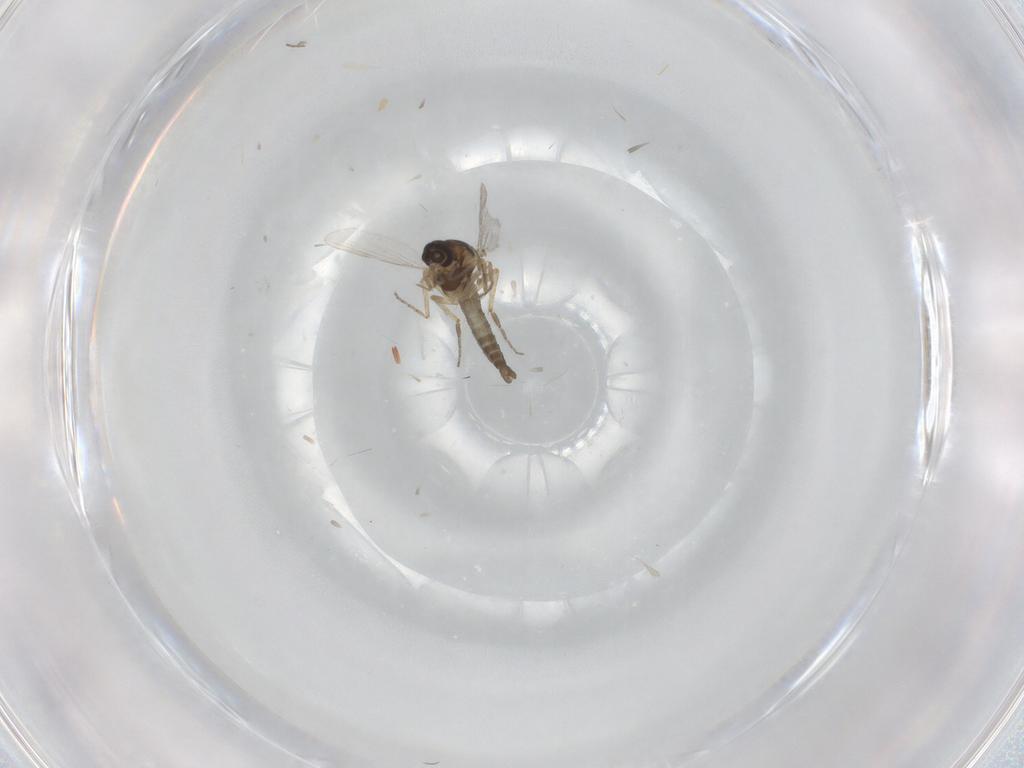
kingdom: Animalia
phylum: Arthropoda
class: Insecta
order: Diptera
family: Ceratopogonidae
